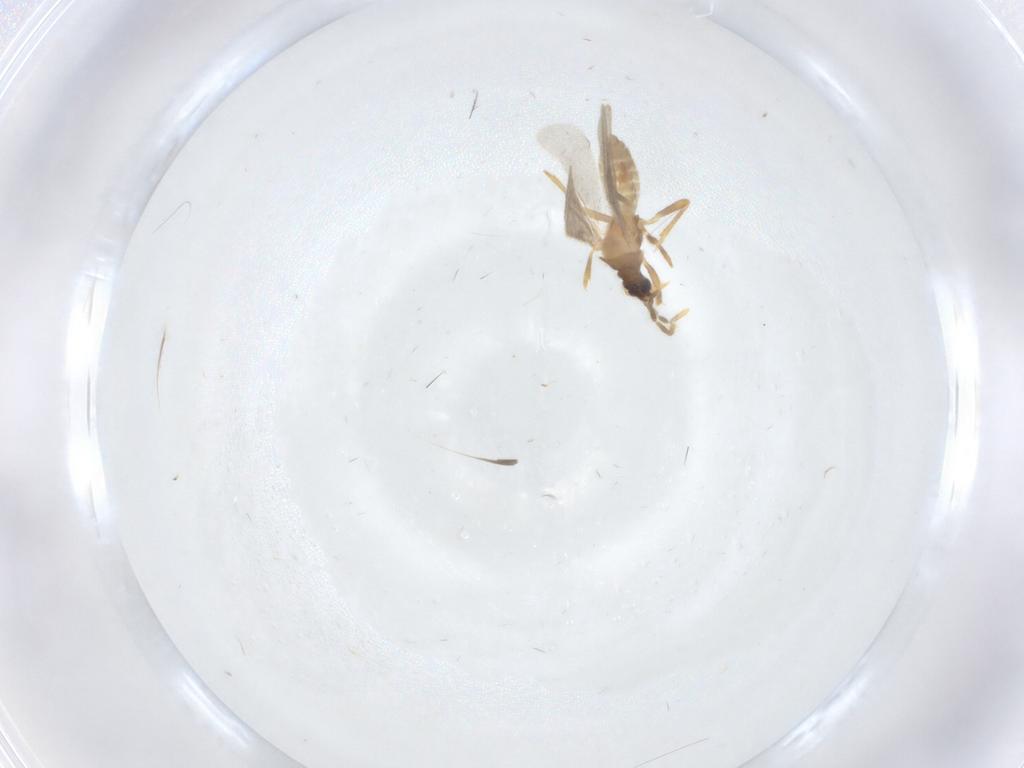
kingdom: Animalia
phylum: Arthropoda
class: Insecta
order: Hemiptera
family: Enicocephalidae
